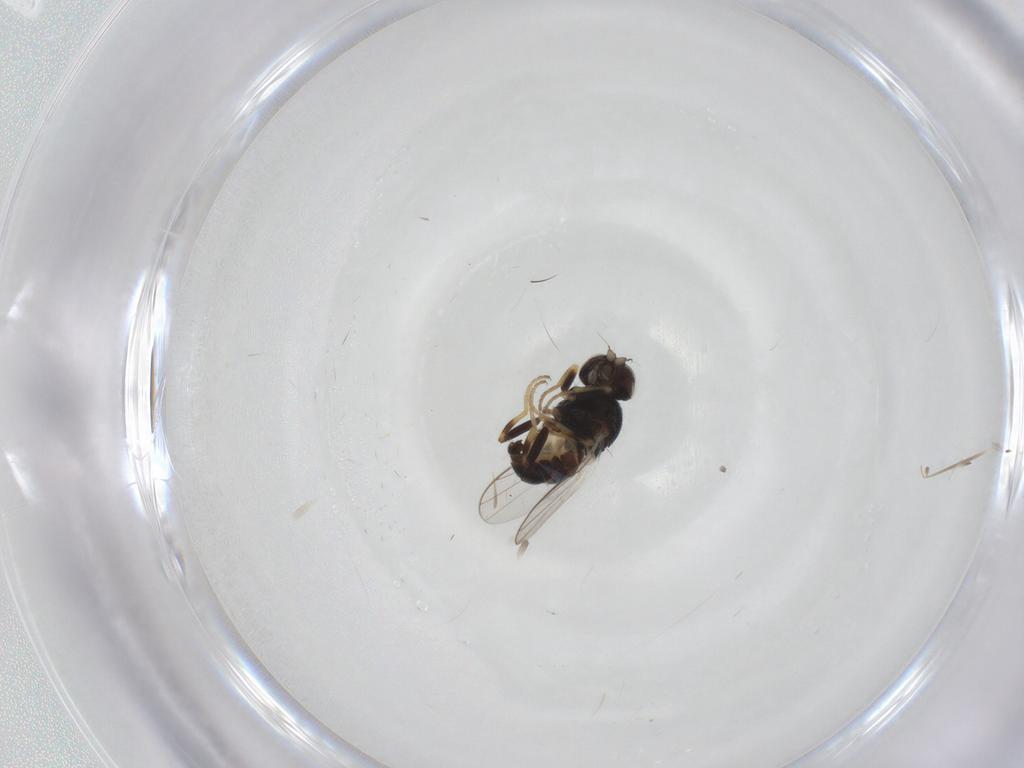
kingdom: Animalia
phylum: Arthropoda
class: Insecta
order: Diptera
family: Chloropidae
